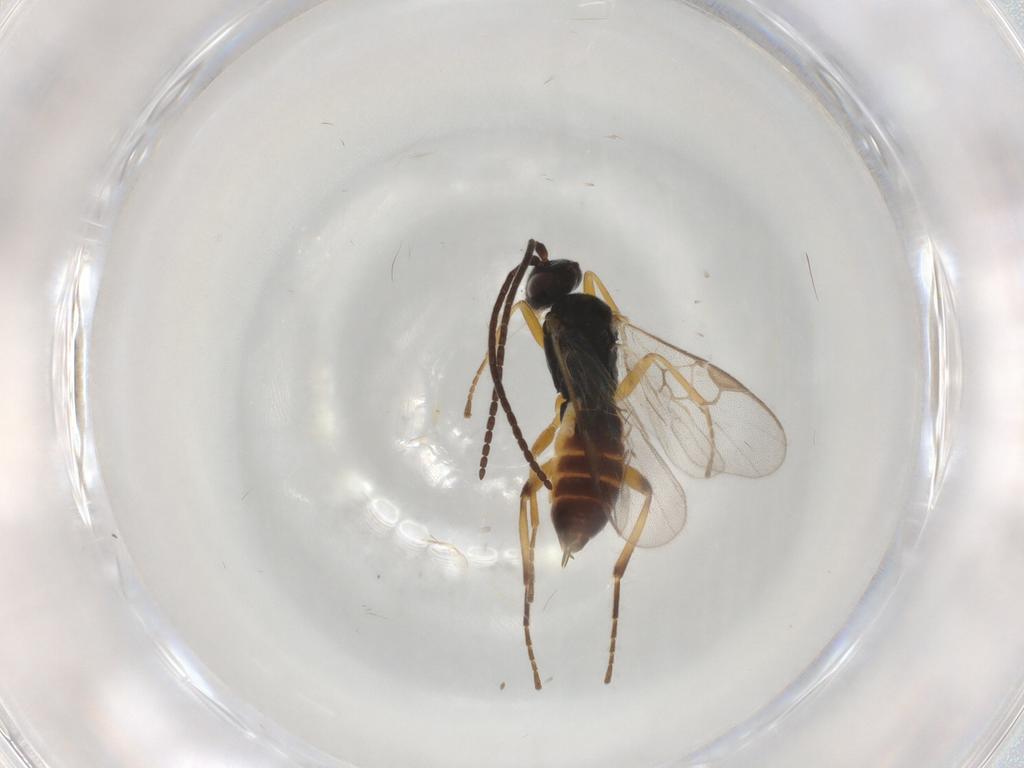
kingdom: Animalia
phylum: Arthropoda
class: Insecta
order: Hymenoptera
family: Braconidae
